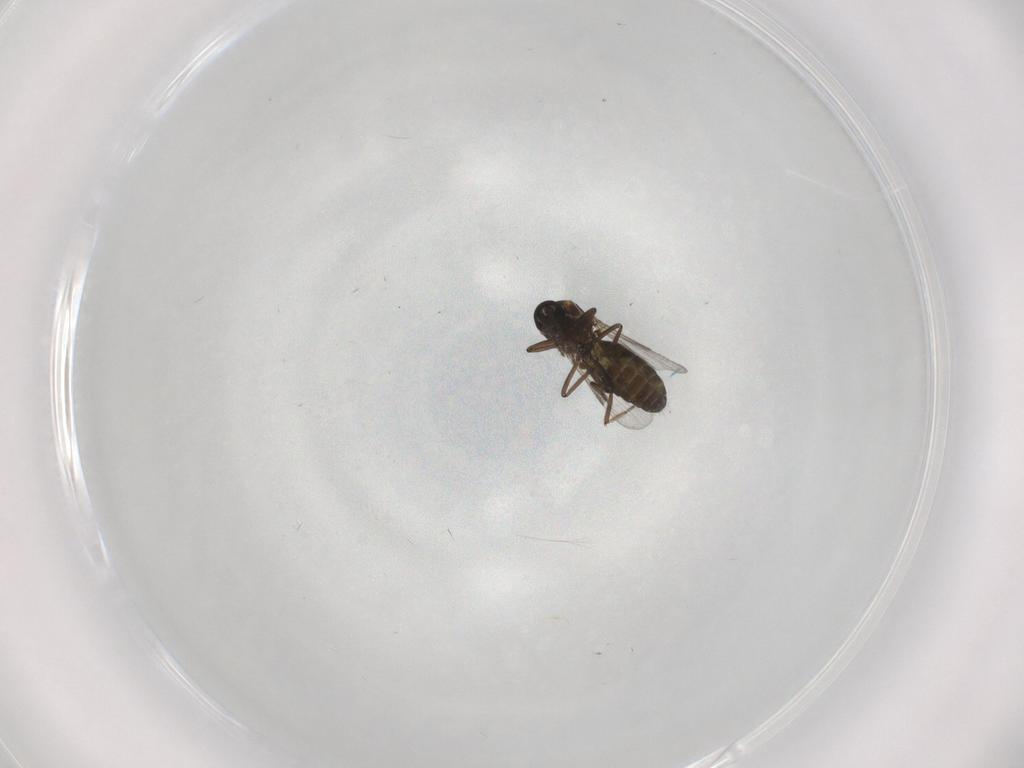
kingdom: Animalia
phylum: Arthropoda
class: Insecta
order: Diptera
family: Ceratopogonidae
